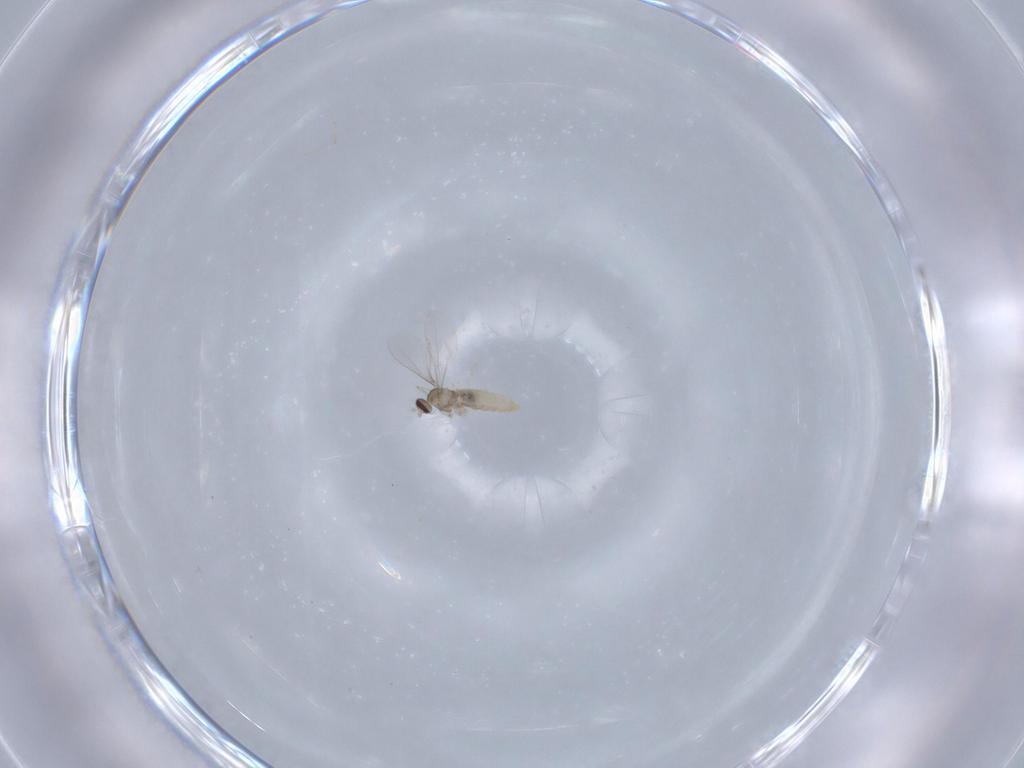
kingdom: Animalia
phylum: Arthropoda
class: Insecta
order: Diptera
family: Cecidomyiidae
